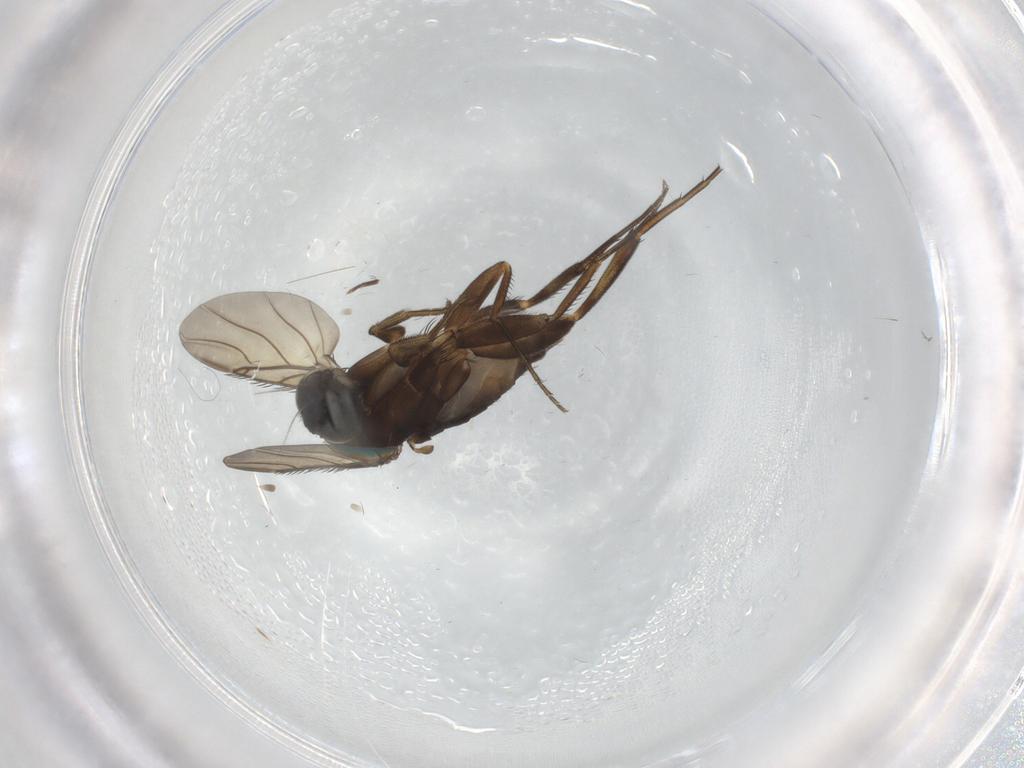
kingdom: Animalia
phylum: Arthropoda
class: Insecta
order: Diptera
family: Phoridae
